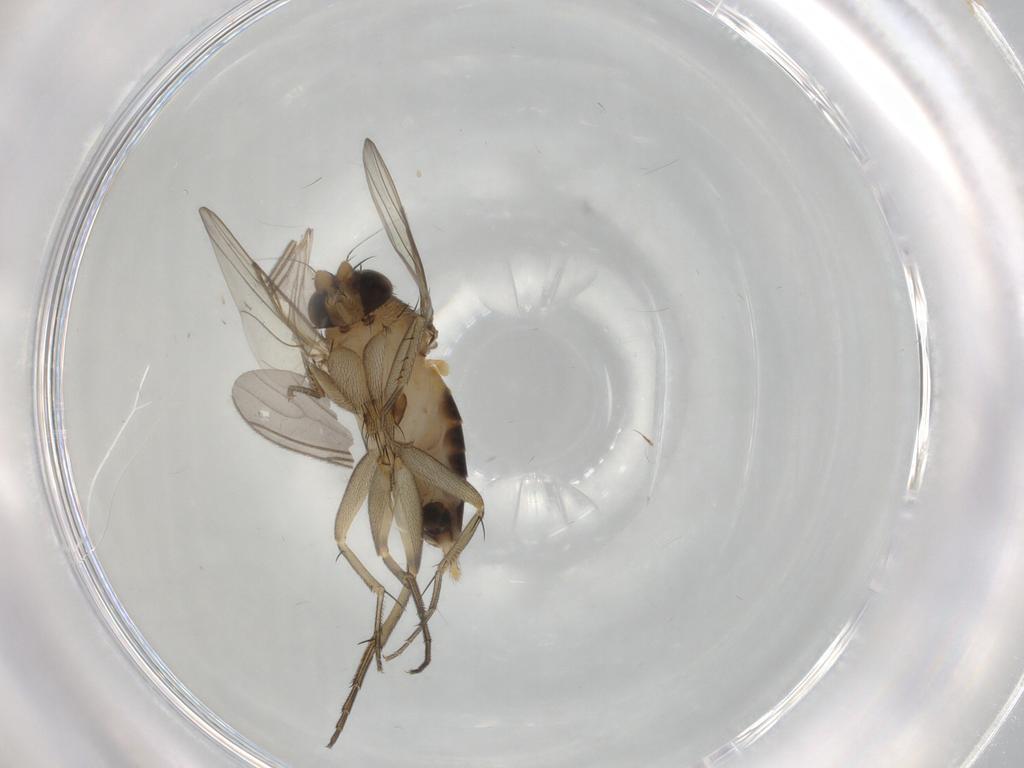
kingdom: Animalia
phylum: Arthropoda
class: Insecta
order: Diptera
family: Phoridae
